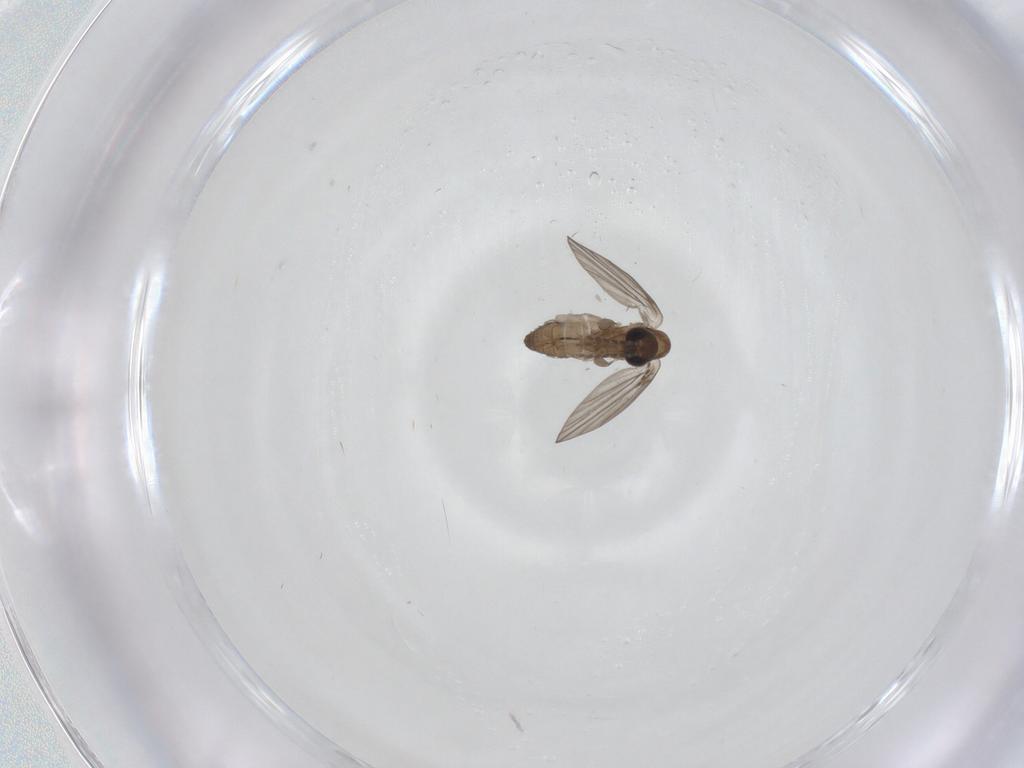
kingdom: Animalia
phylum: Arthropoda
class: Insecta
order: Diptera
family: Psychodidae
